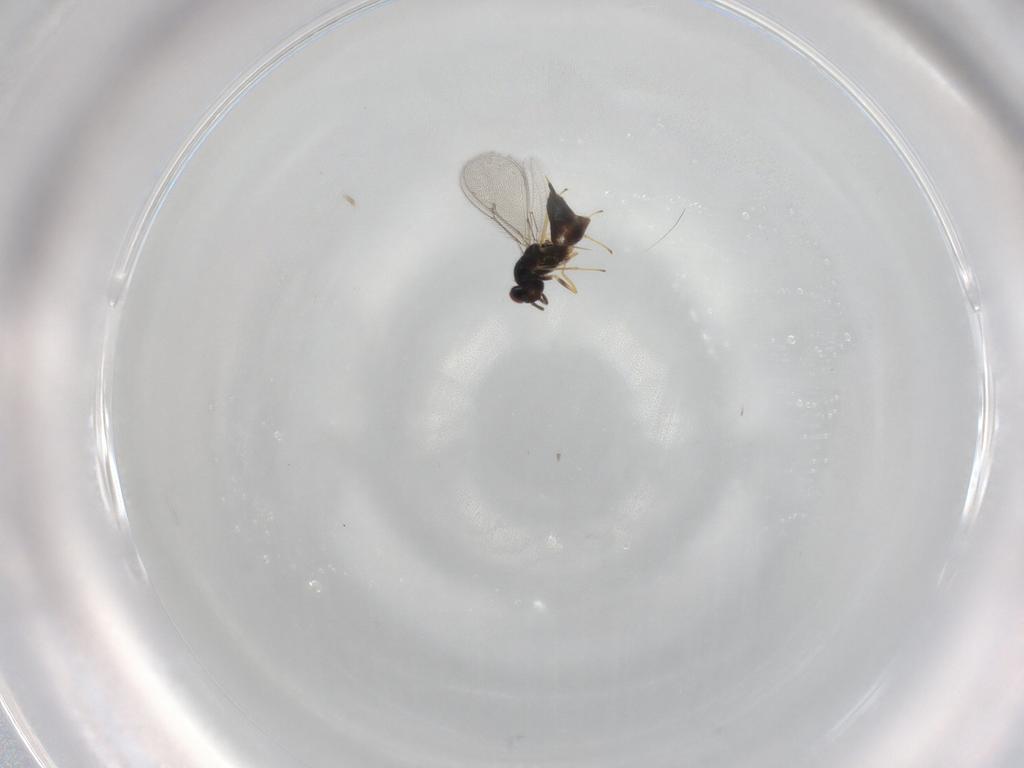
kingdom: Animalia
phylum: Arthropoda
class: Insecta
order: Hymenoptera
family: Eulophidae
